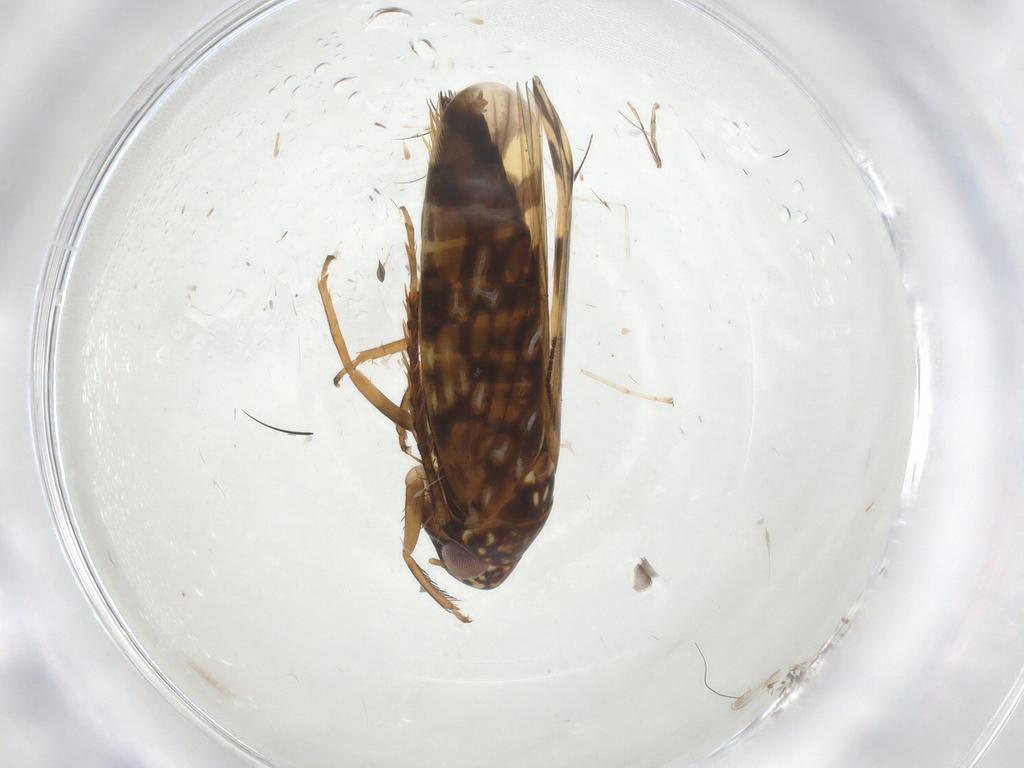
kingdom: Animalia
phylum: Arthropoda
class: Insecta
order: Hemiptera
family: Cicadellidae
